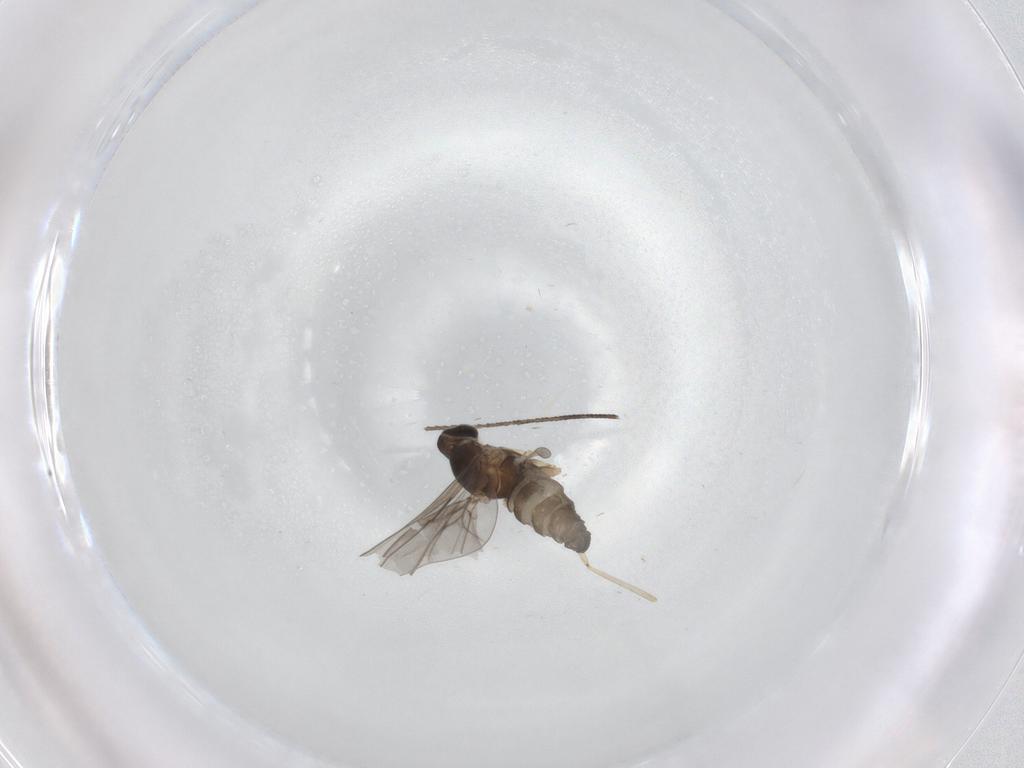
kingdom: Animalia
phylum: Arthropoda
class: Insecta
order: Diptera
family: Cecidomyiidae
